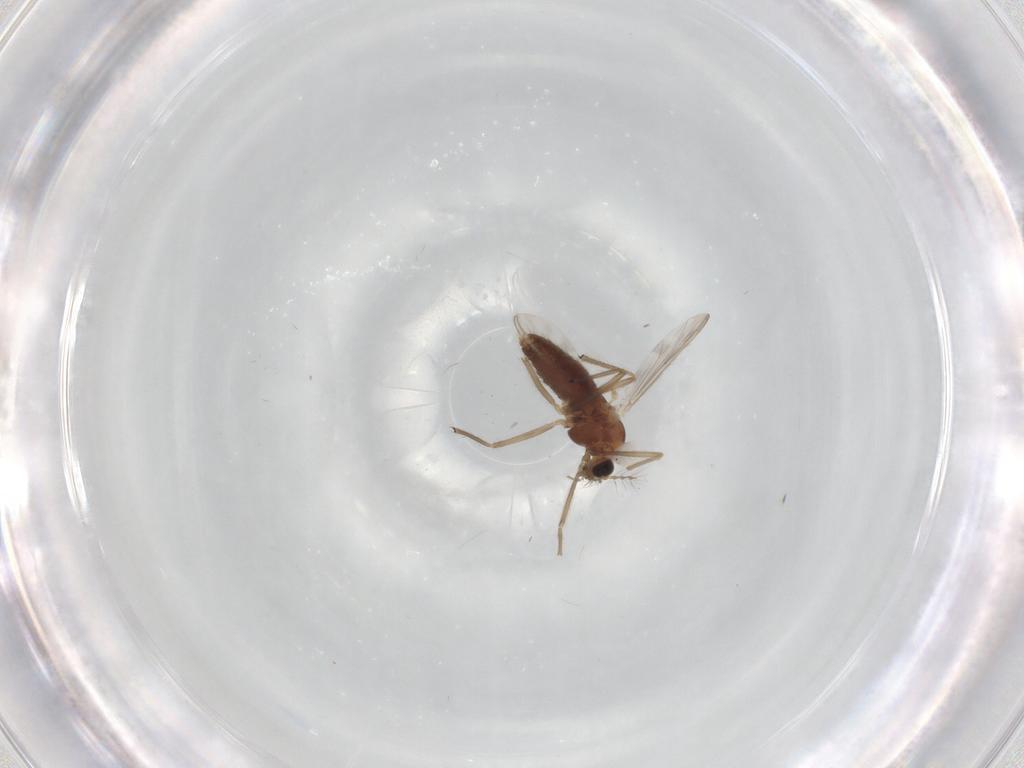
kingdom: Animalia
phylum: Arthropoda
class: Insecta
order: Diptera
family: Chironomidae
